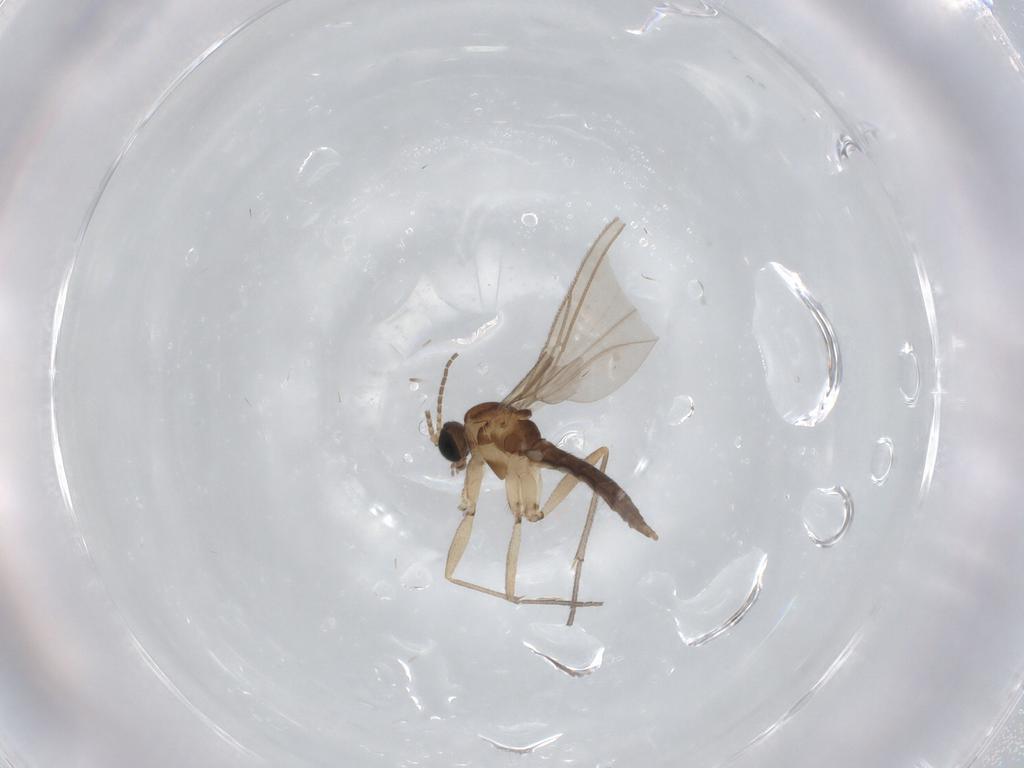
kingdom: Animalia
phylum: Arthropoda
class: Insecta
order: Diptera
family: Sciaridae
